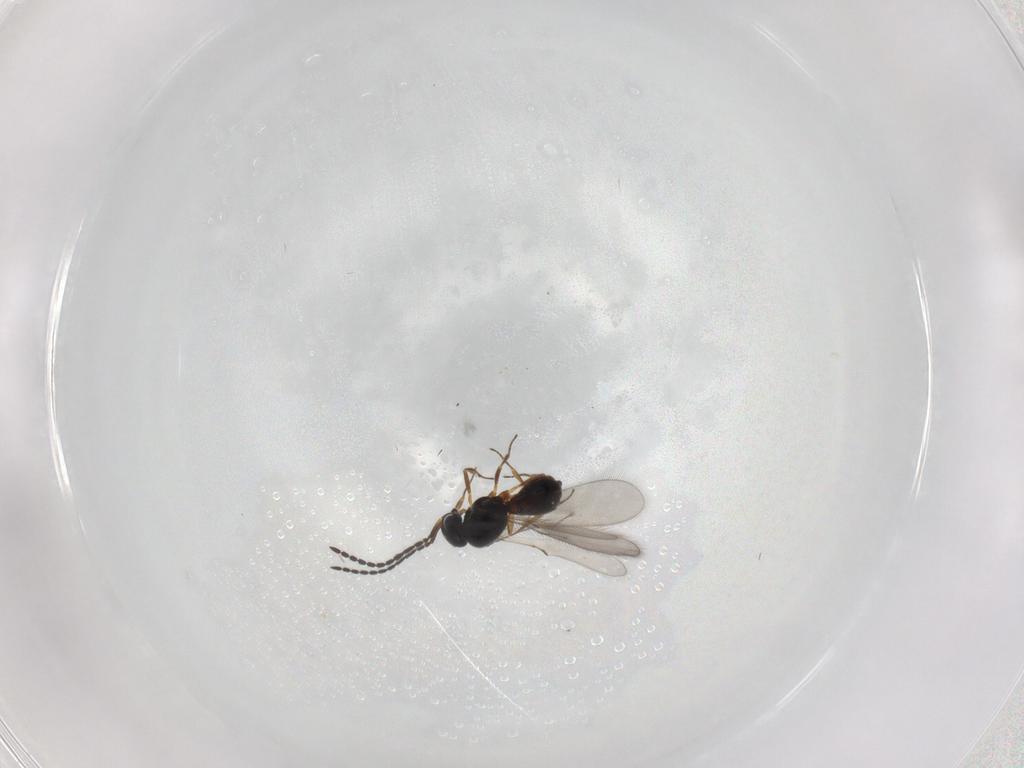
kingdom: Animalia
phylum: Arthropoda
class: Insecta
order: Hymenoptera
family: Scelionidae
